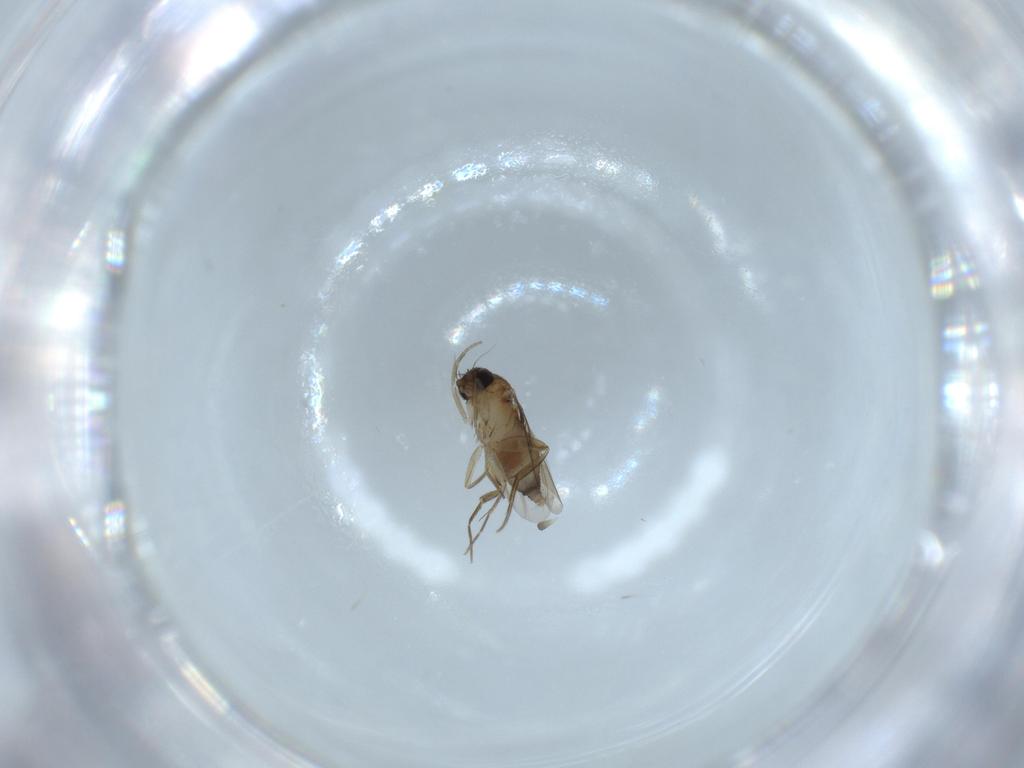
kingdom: Animalia
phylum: Arthropoda
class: Insecta
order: Diptera
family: Phoridae
